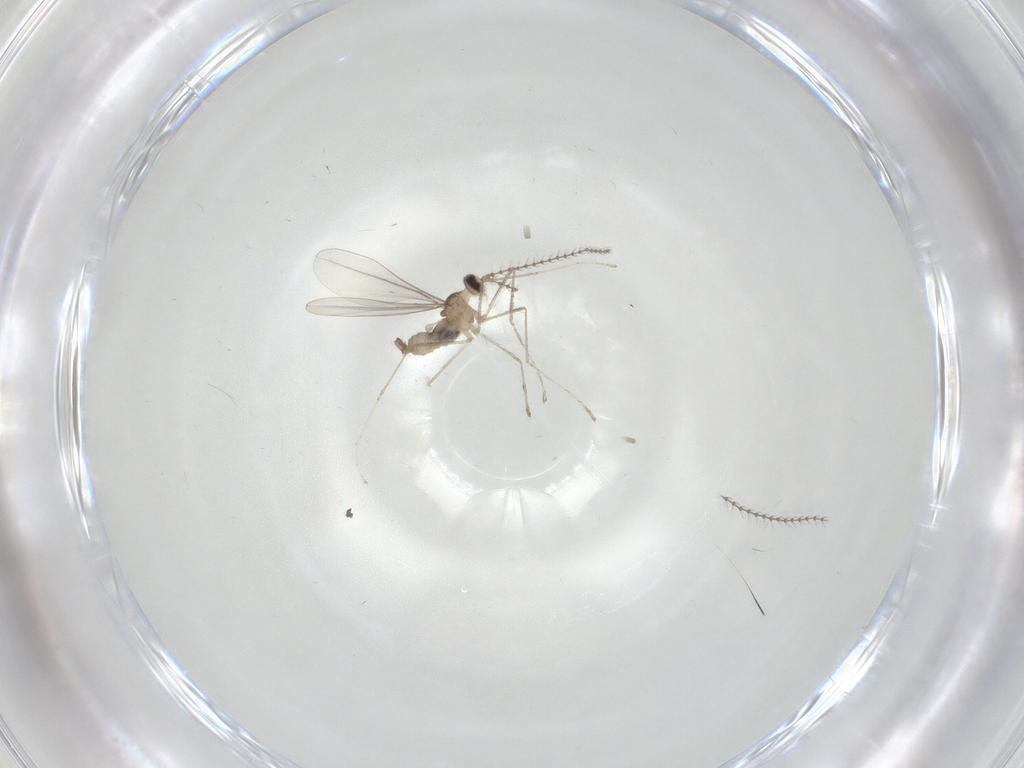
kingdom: Animalia
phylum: Arthropoda
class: Insecta
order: Diptera
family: Cecidomyiidae
